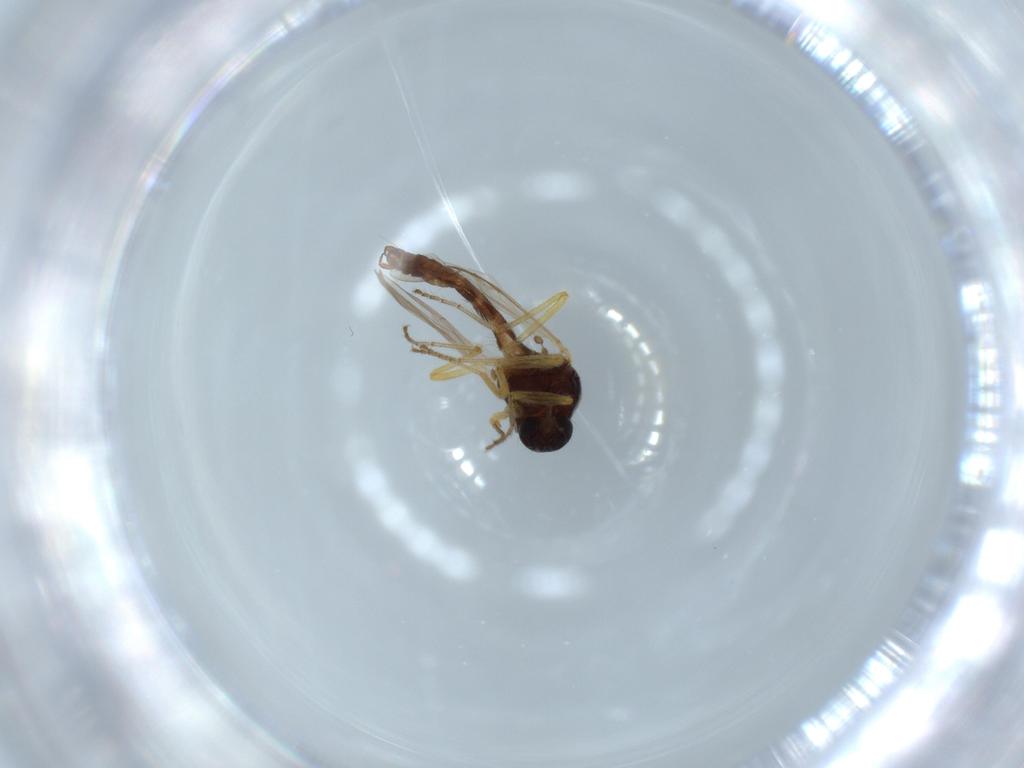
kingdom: Animalia
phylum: Arthropoda
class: Insecta
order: Diptera
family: Ceratopogonidae
